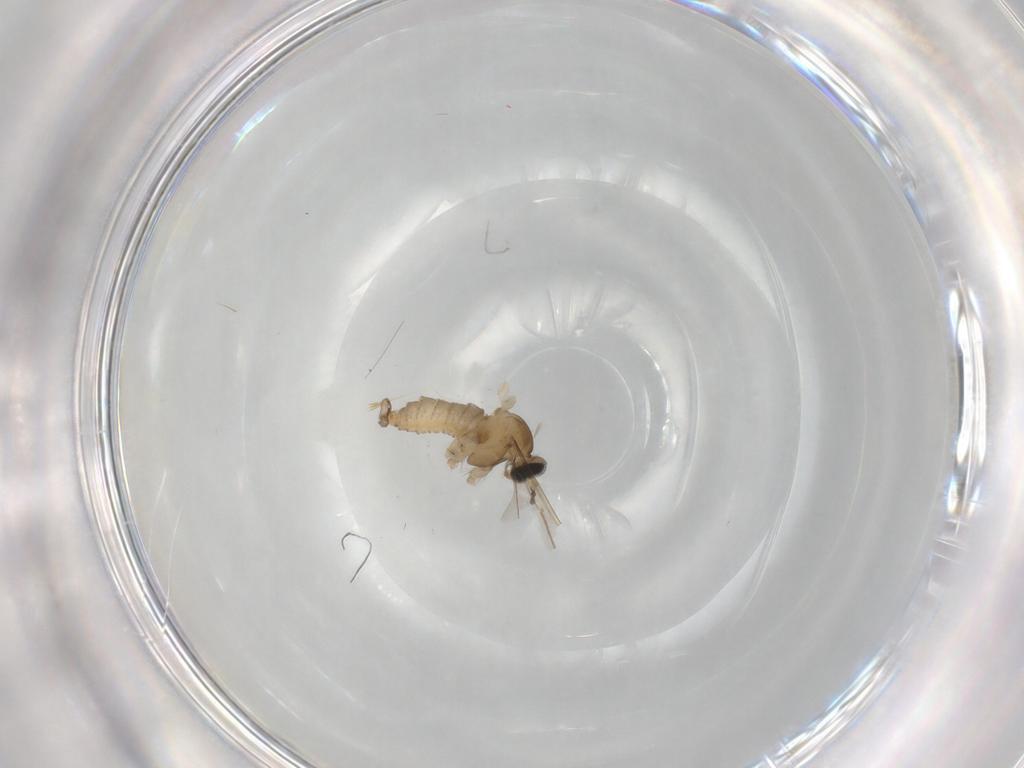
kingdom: Animalia
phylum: Arthropoda
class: Insecta
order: Diptera
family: Cecidomyiidae
